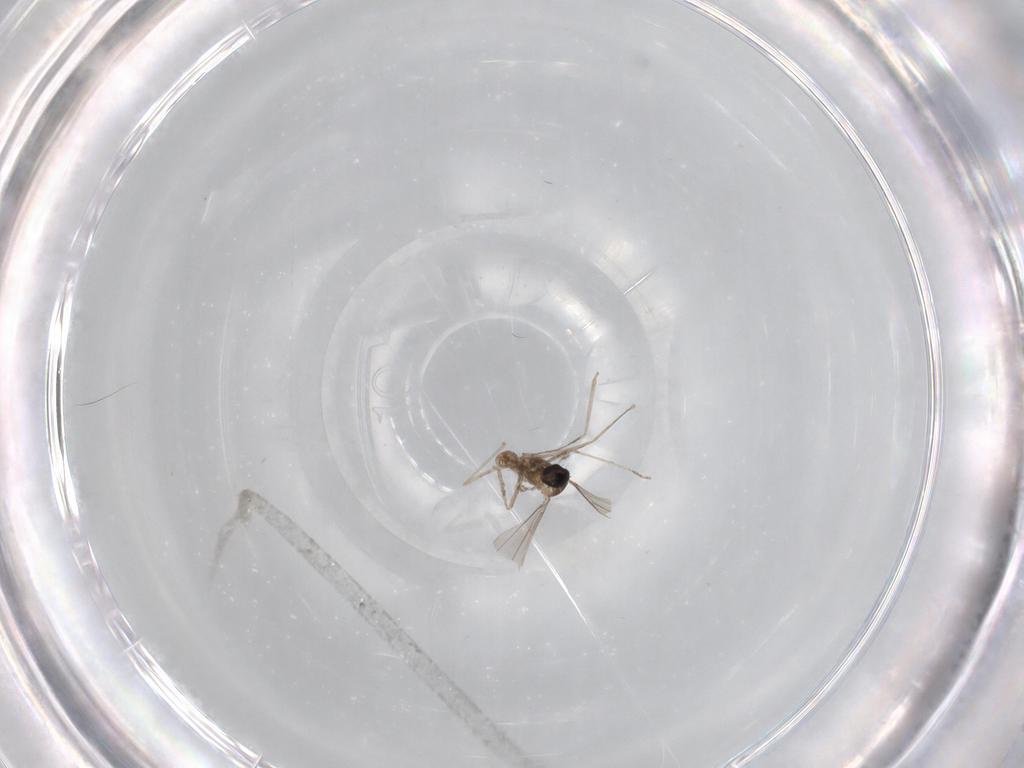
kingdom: Animalia
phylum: Arthropoda
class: Insecta
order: Diptera
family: Cecidomyiidae
